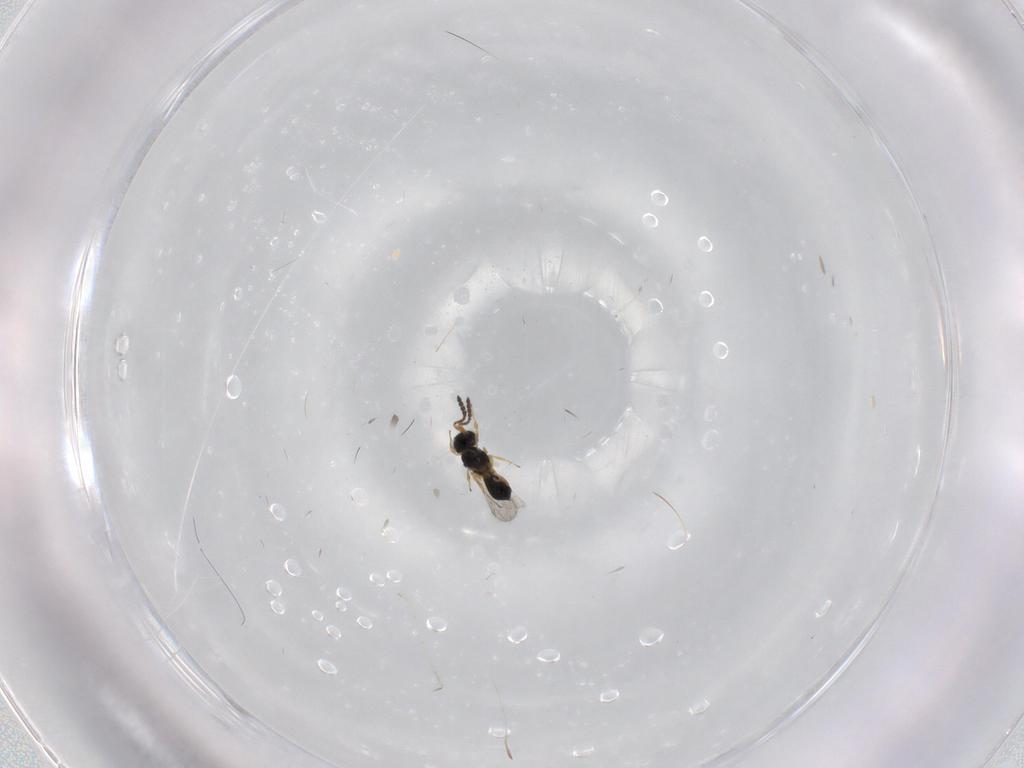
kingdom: Animalia
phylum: Arthropoda
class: Insecta
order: Hymenoptera
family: Scelionidae
